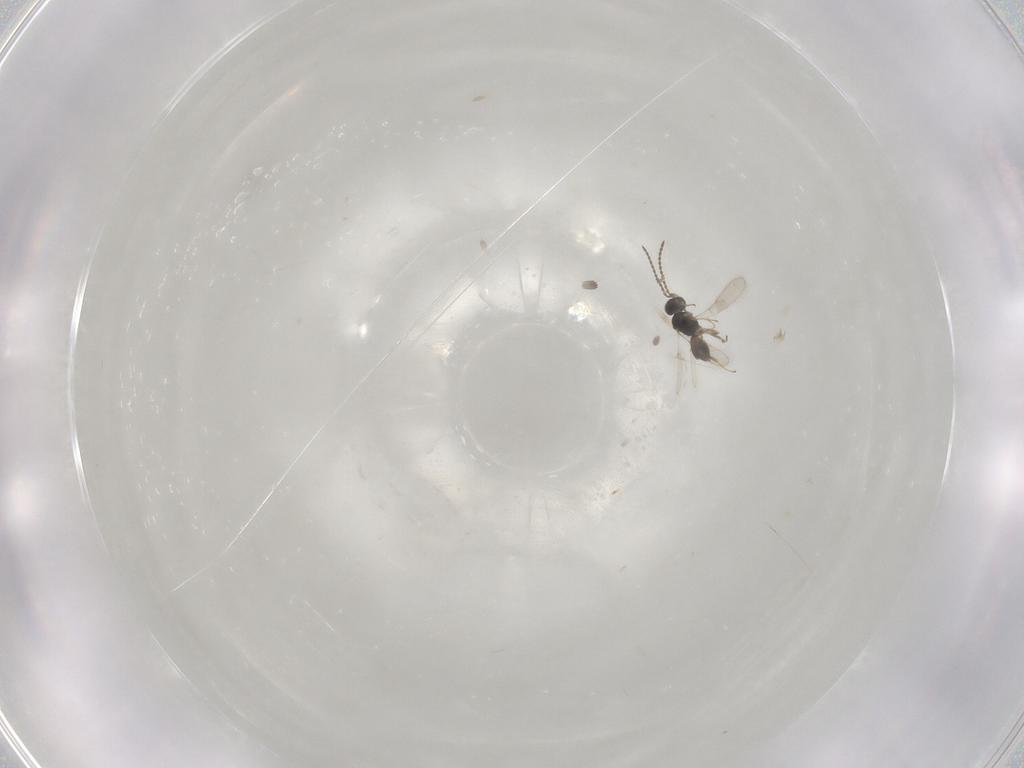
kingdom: Animalia
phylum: Arthropoda
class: Insecta
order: Hymenoptera
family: Scelionidae
